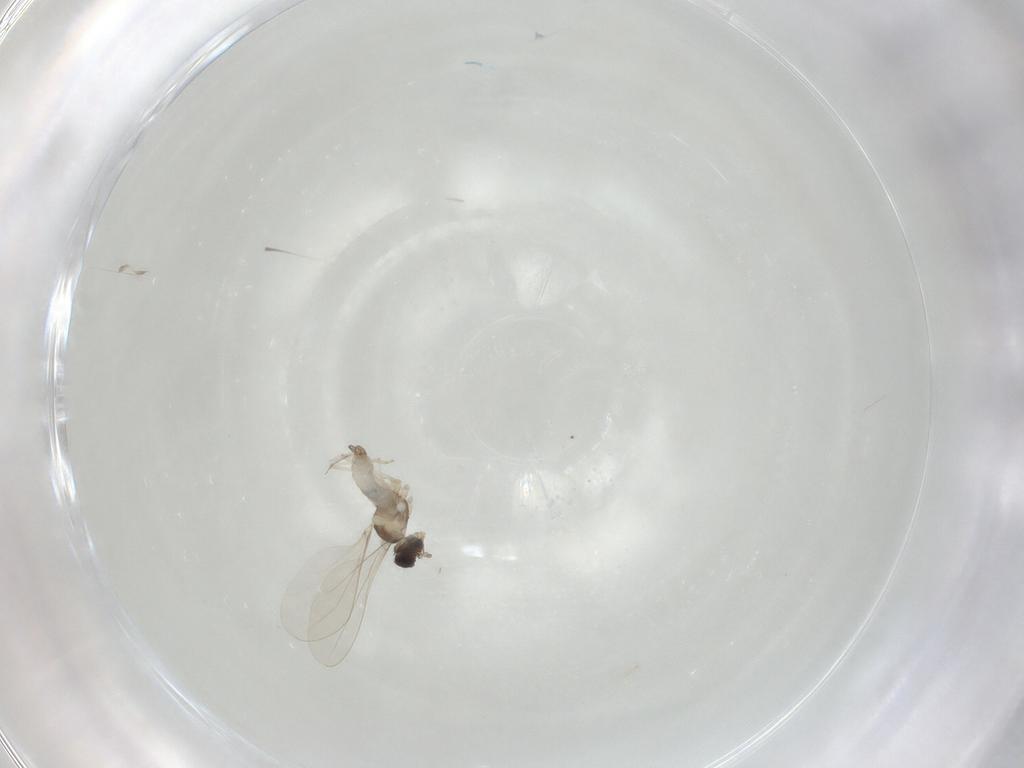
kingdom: Animalia
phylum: Arthropoda
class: Insecta
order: Diptera
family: Chironomidae
